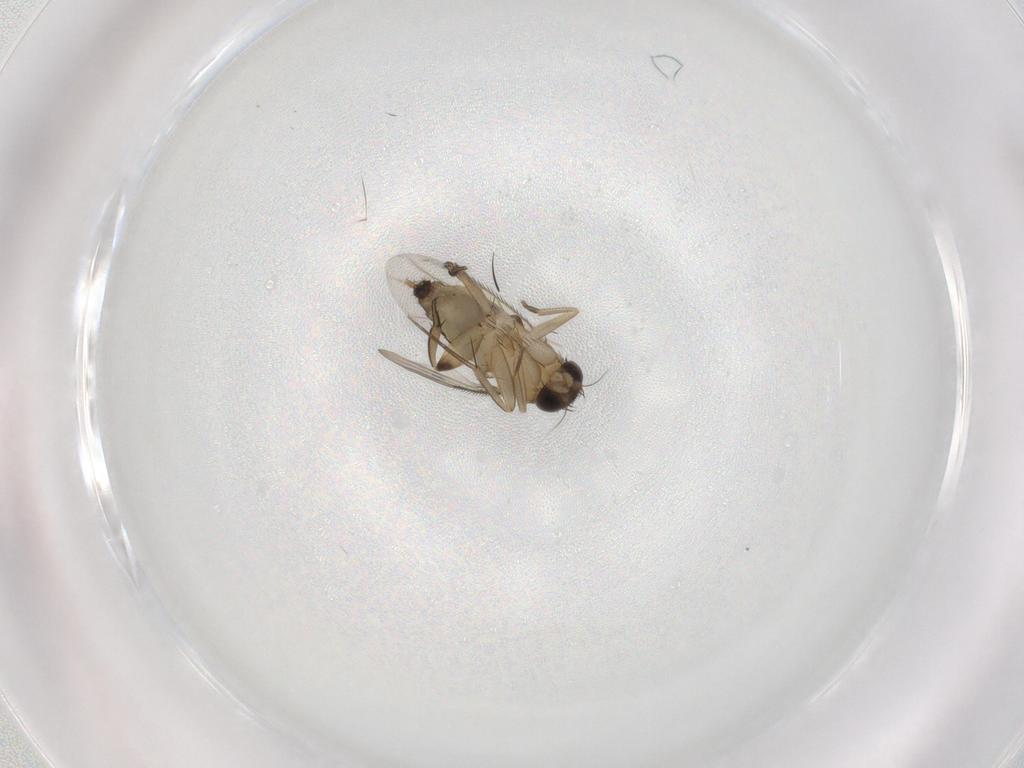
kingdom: Animalia
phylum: Arthropoda
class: Insecta
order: Diptera
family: Phoridae
